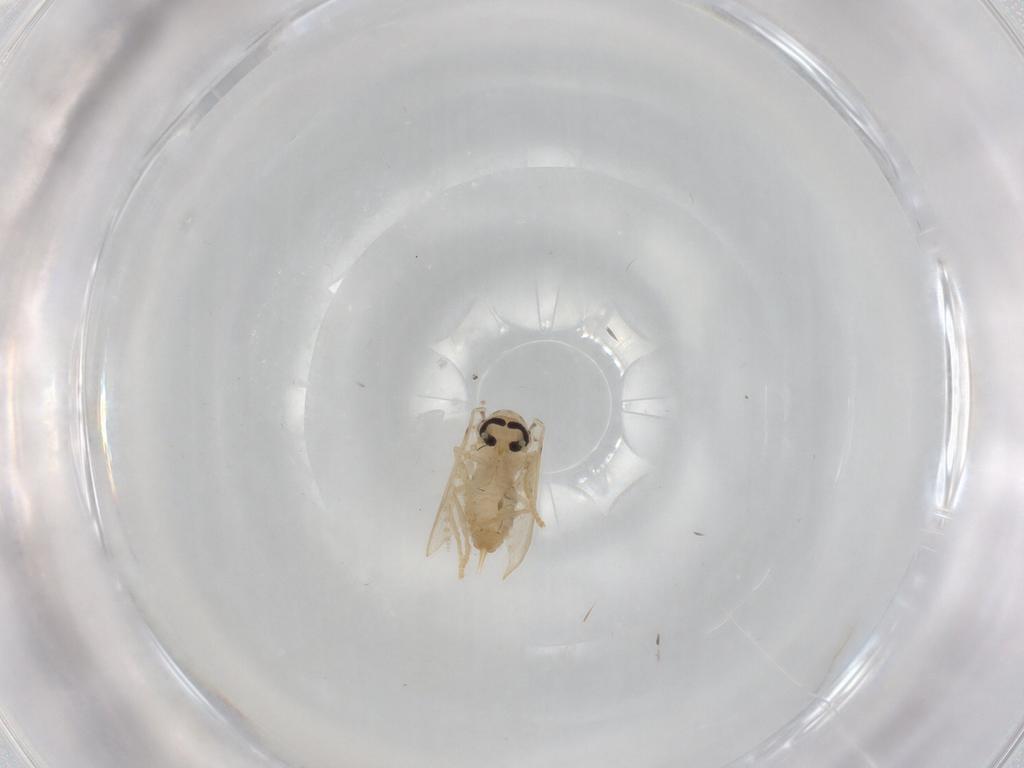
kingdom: Animalia
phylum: Arthropoda
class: Insecta
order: Diptera
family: Psychodidae
